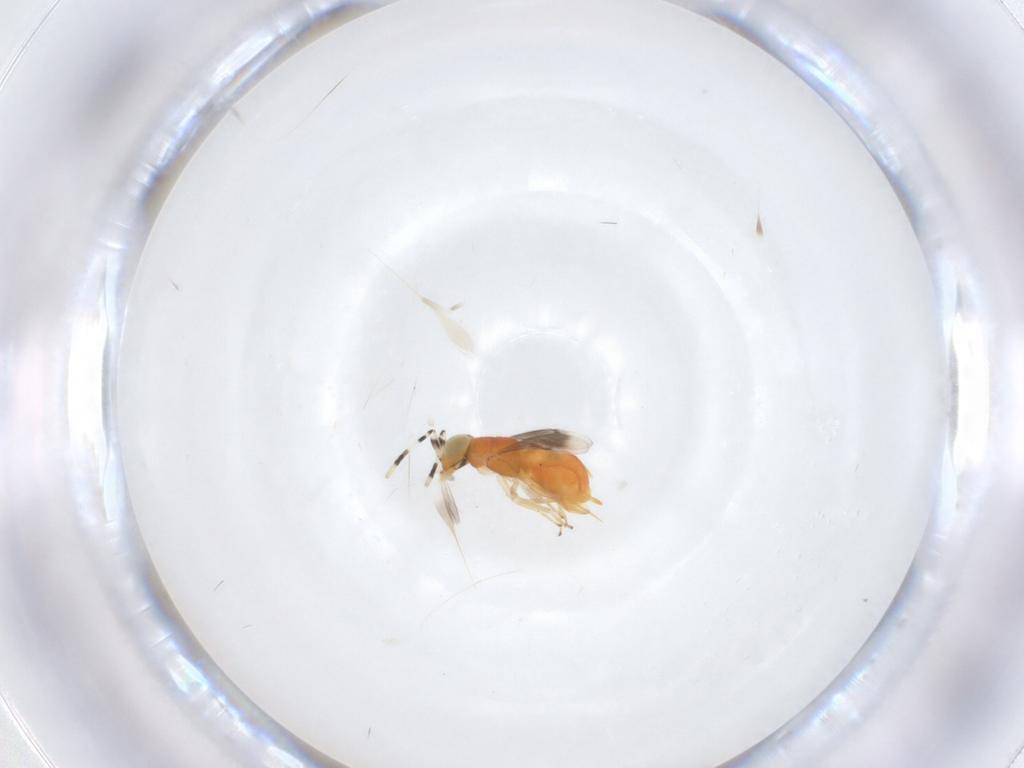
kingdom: Animalia
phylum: Arthropoda
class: Insecta
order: Hymenoptera
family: Encyrtidae
